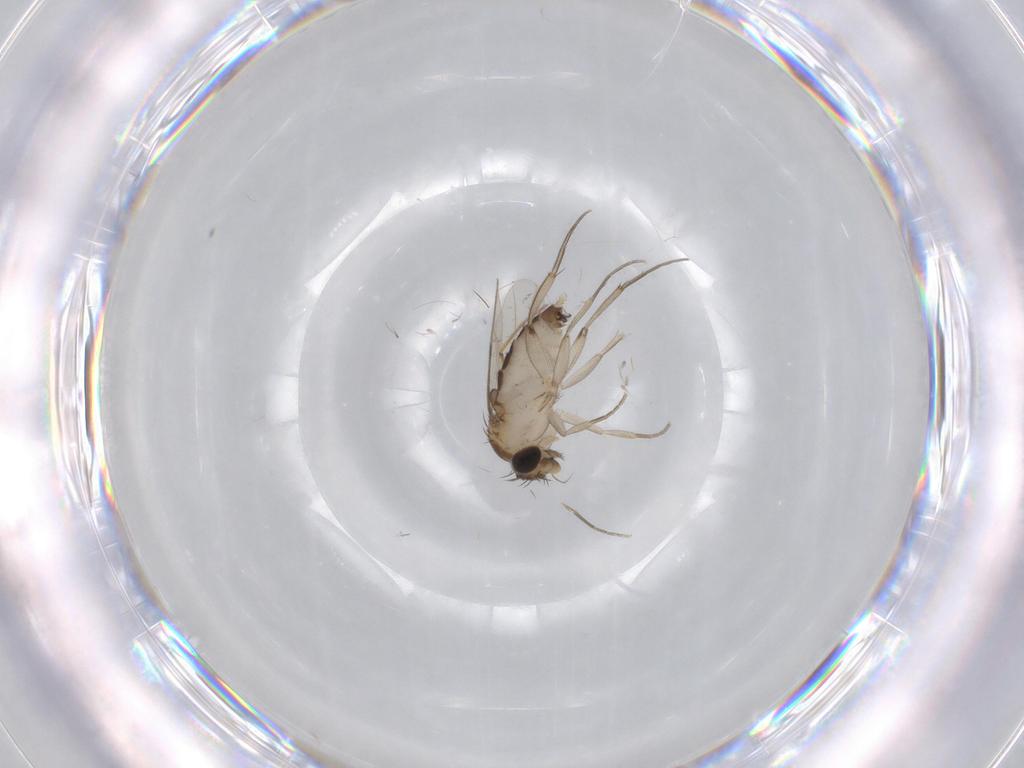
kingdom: Animalia
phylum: Arthropoda
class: Insecta
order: Diptera
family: Phoridae
